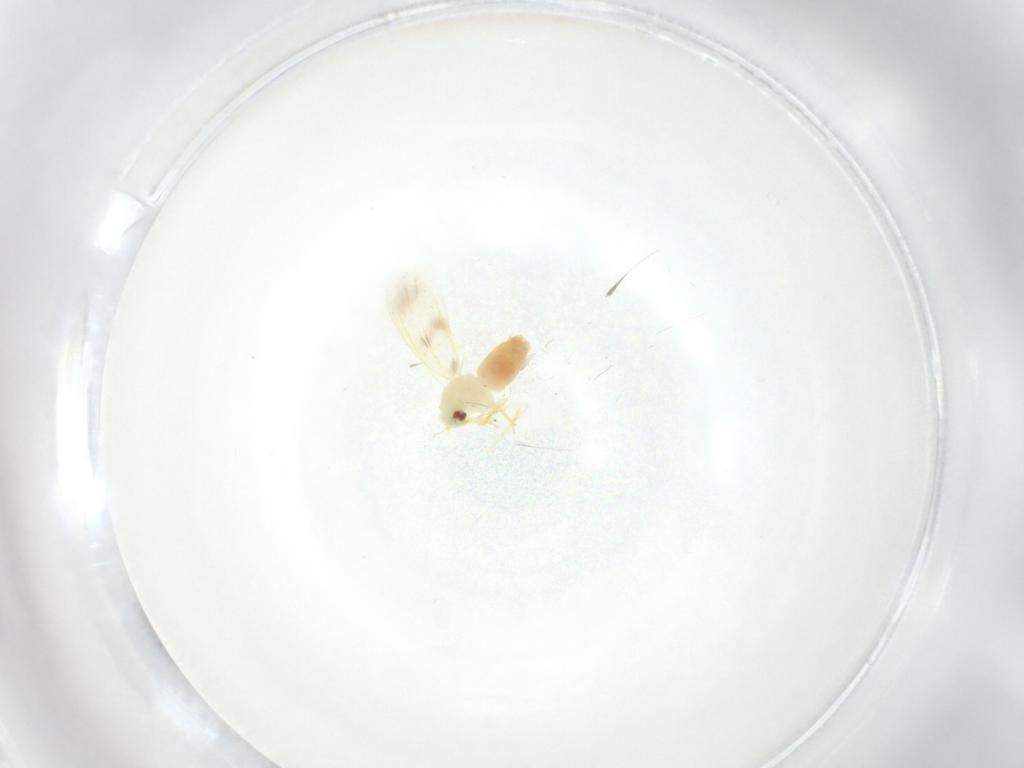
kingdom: Animalia
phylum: Arthropoda
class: Insecta
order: Hemiptera
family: Aleyrodidae
